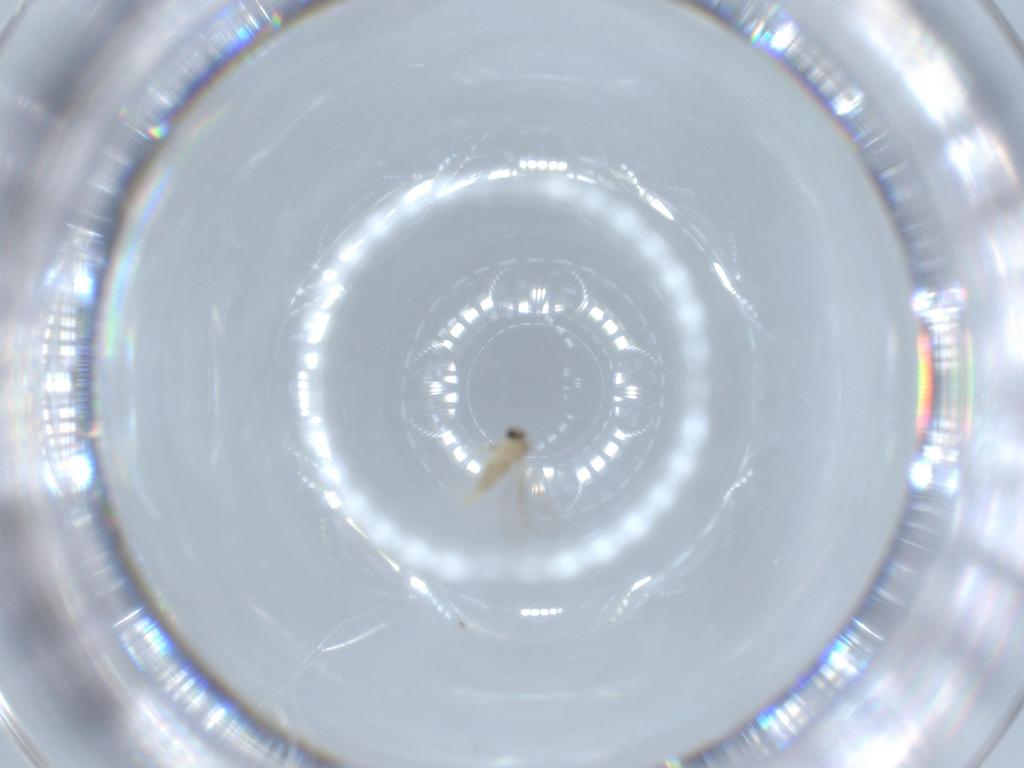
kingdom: Animalia
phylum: Arthropoda
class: Insecta
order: Diptera
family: Cecidomyiidae
